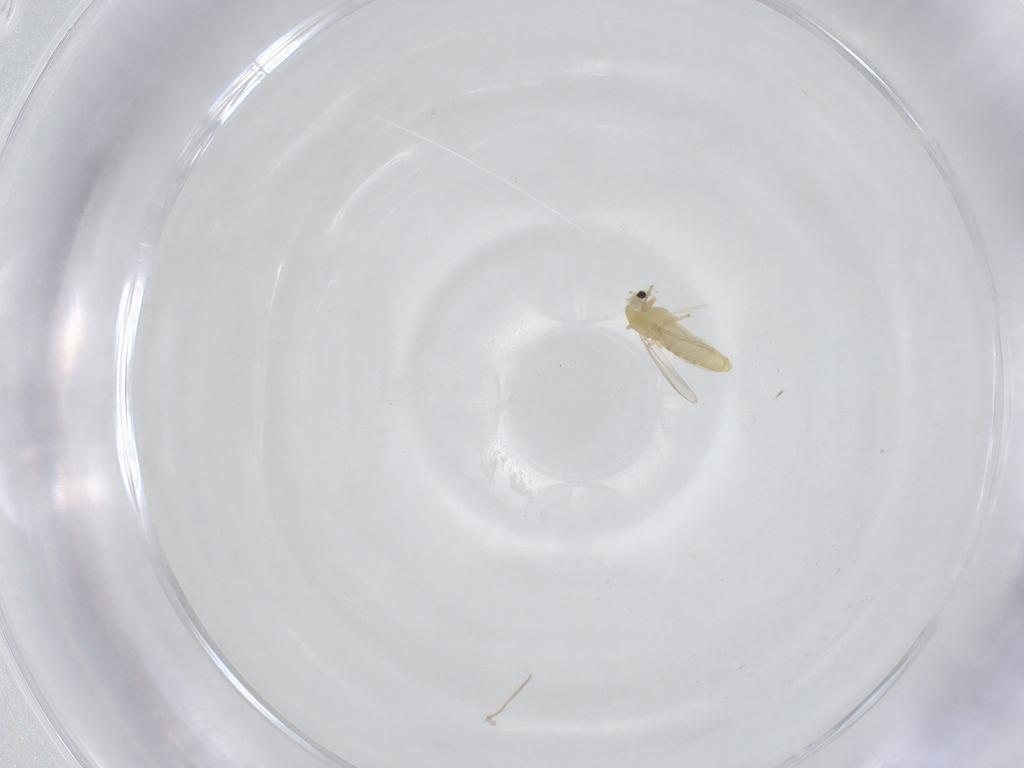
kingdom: Animalia
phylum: Arthropoda
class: Insecta
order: Diptera
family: Chironomidae
